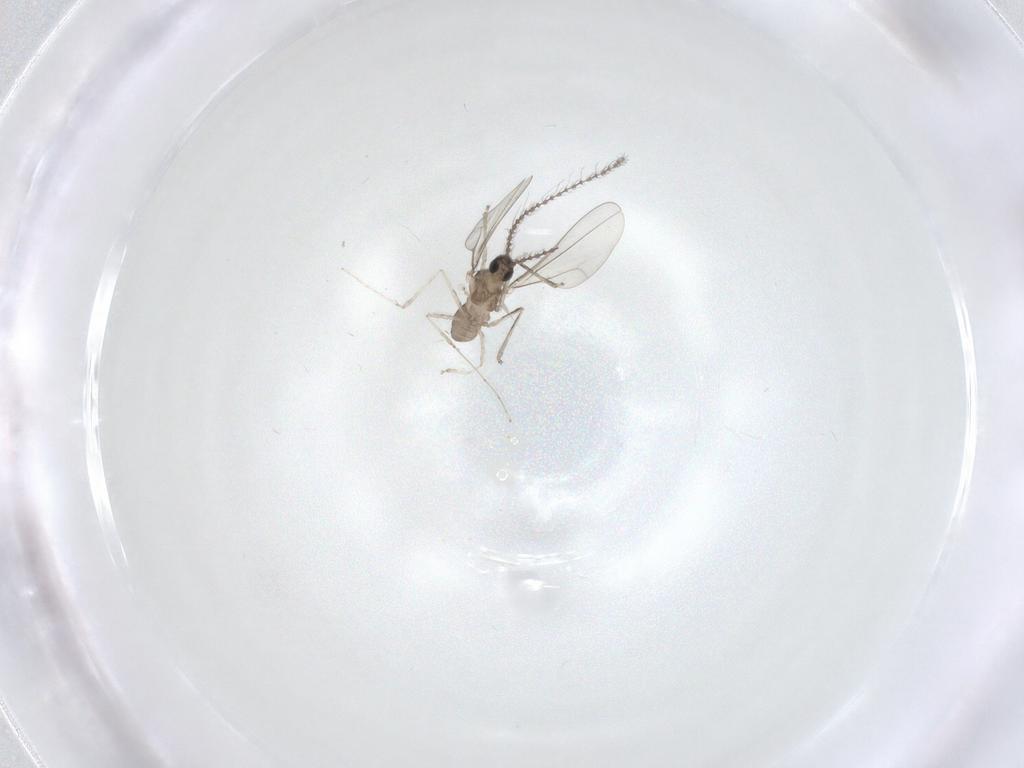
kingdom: Animalia
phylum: Arthropoda
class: Insecta
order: Diptera
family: Cecidomyiidae
